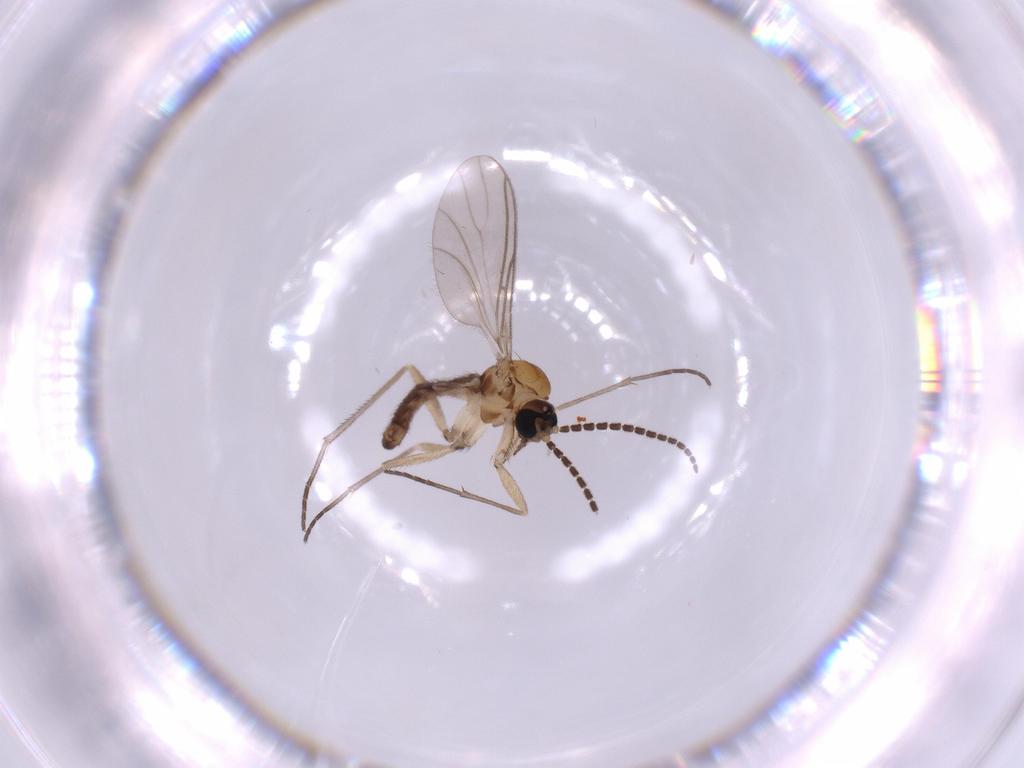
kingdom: Animalia
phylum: Arthropoda
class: Insecta
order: Diptera
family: Sciaridae
